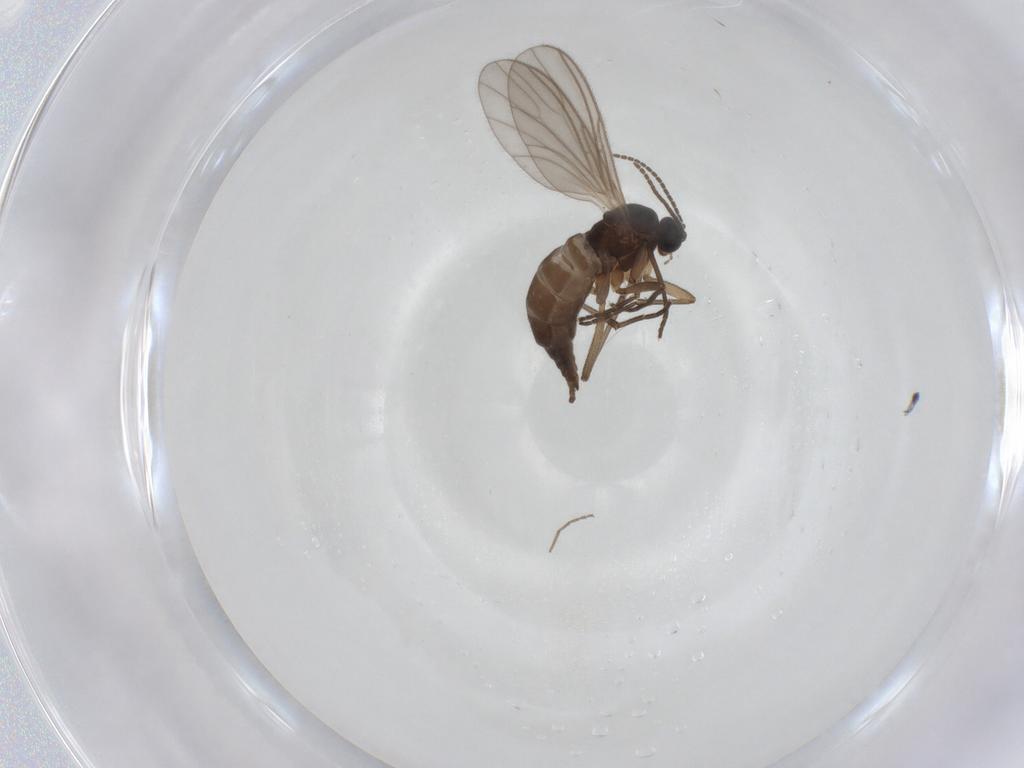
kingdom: Animalia
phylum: Arthropoda
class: Insecta
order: Diptera
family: Sciaridae
